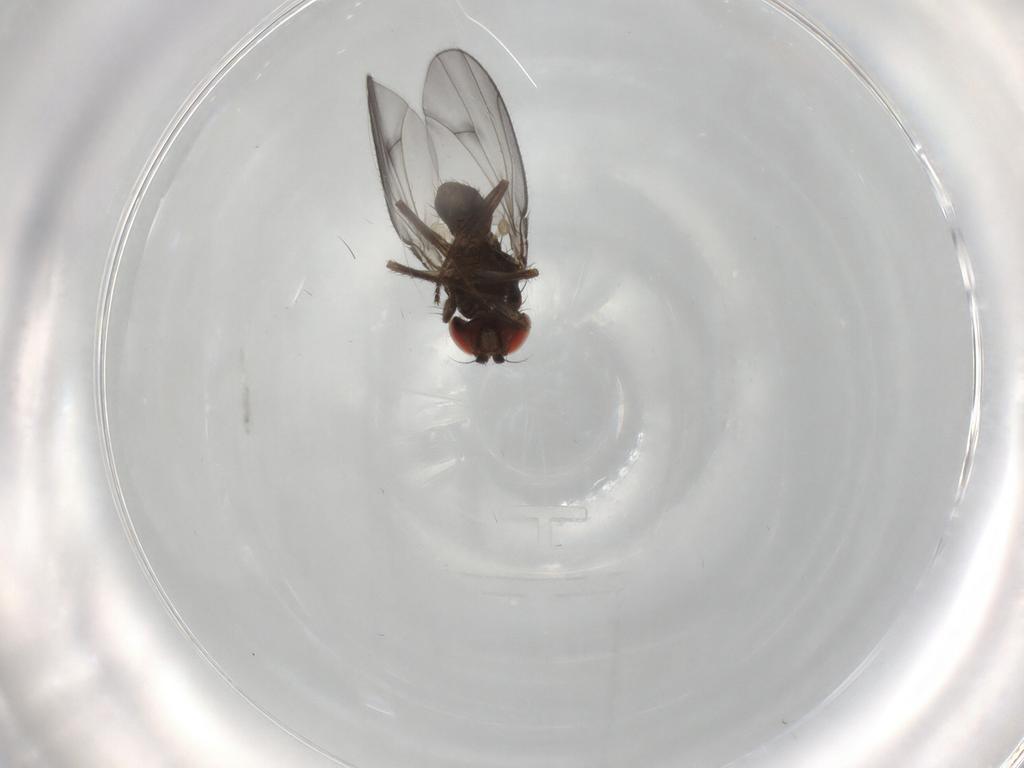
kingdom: Animalia
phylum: Arthropoda
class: Insecta
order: Diptera
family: Drosophilidae
